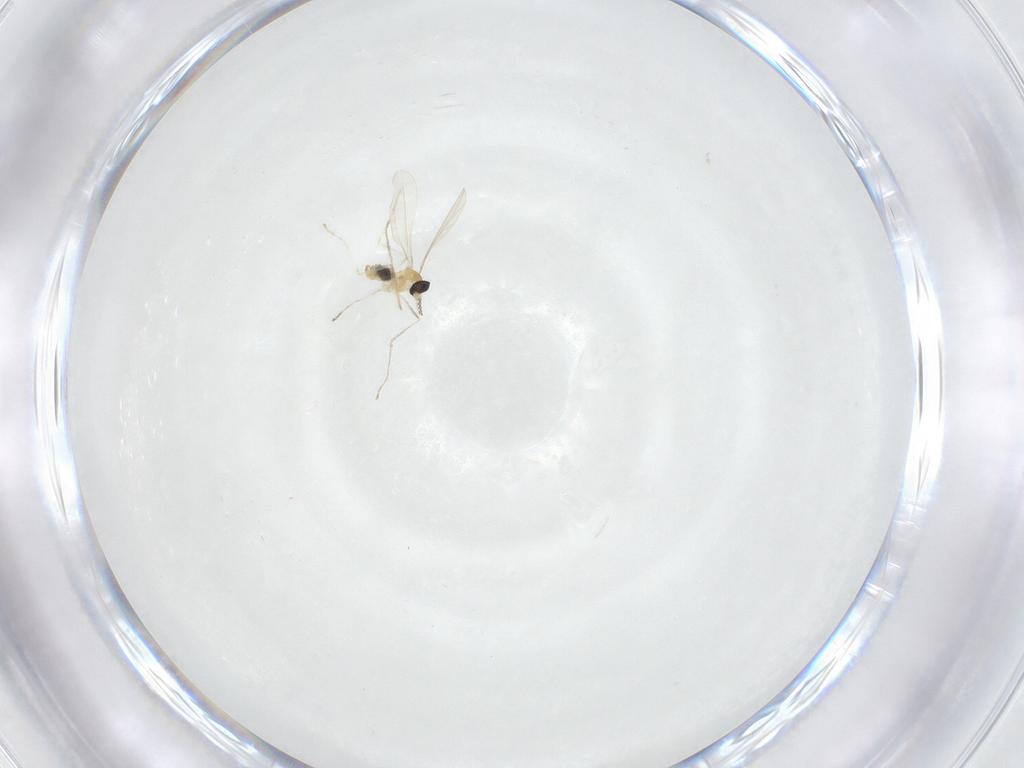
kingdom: Animalia
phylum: Arthropoda
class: Insecta
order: Diptera
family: Cecidomyiidae
